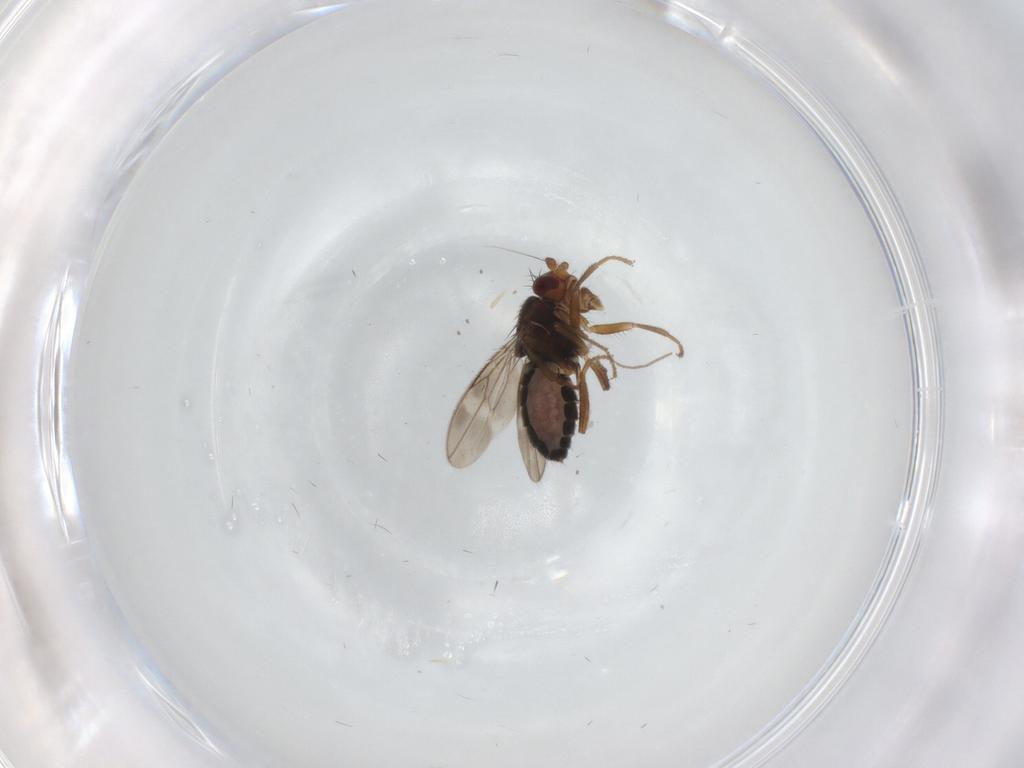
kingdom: Animalia
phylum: Arthropoda
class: Insecta
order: Diptera
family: Sphaeroceridae
